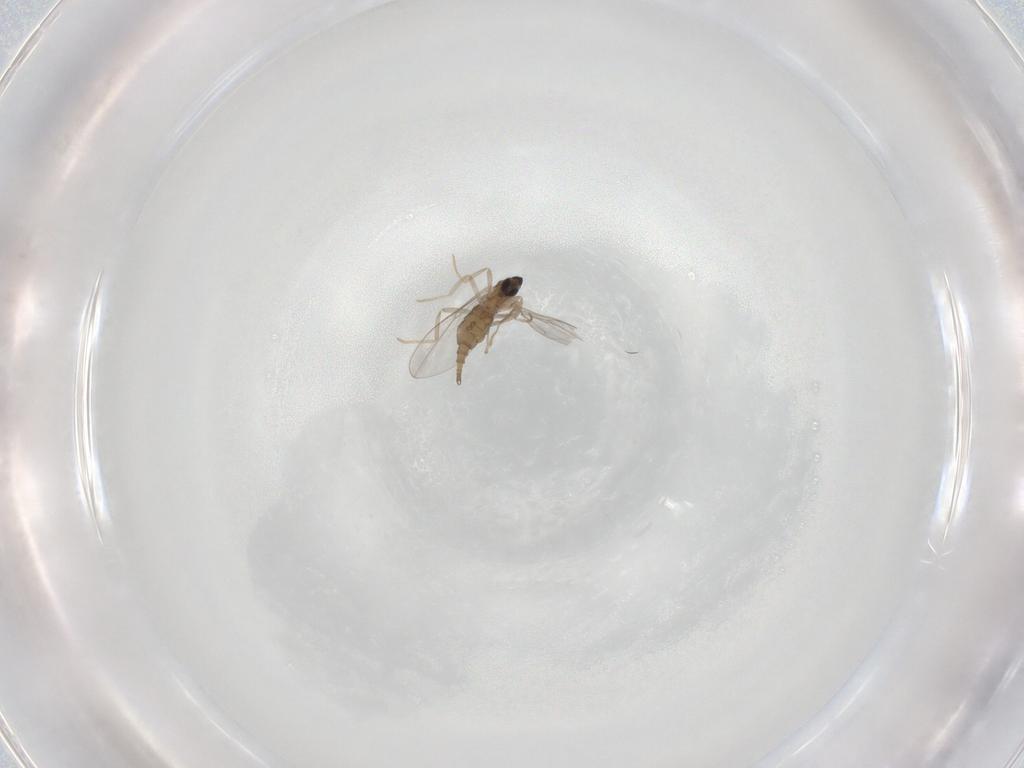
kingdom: Animalia
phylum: Arthropoda
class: Insecta
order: Diptera
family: Cecidomyiidae
